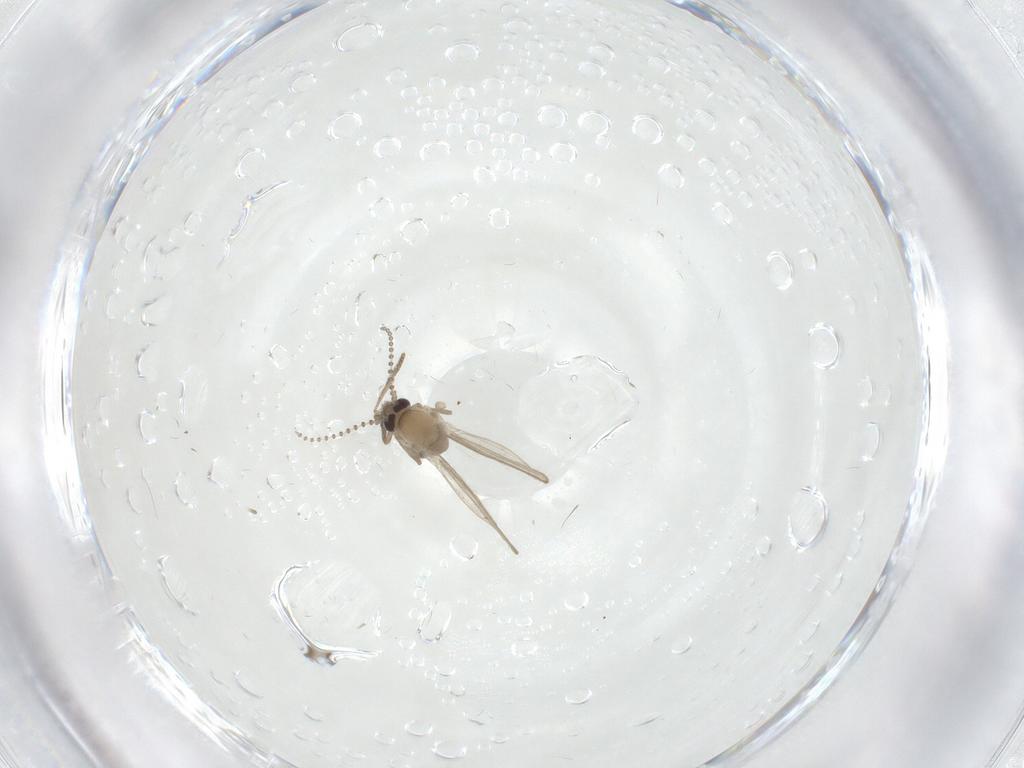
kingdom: Animalia
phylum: Arthropoda
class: Insecta
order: Diptera
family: Psychodidae
